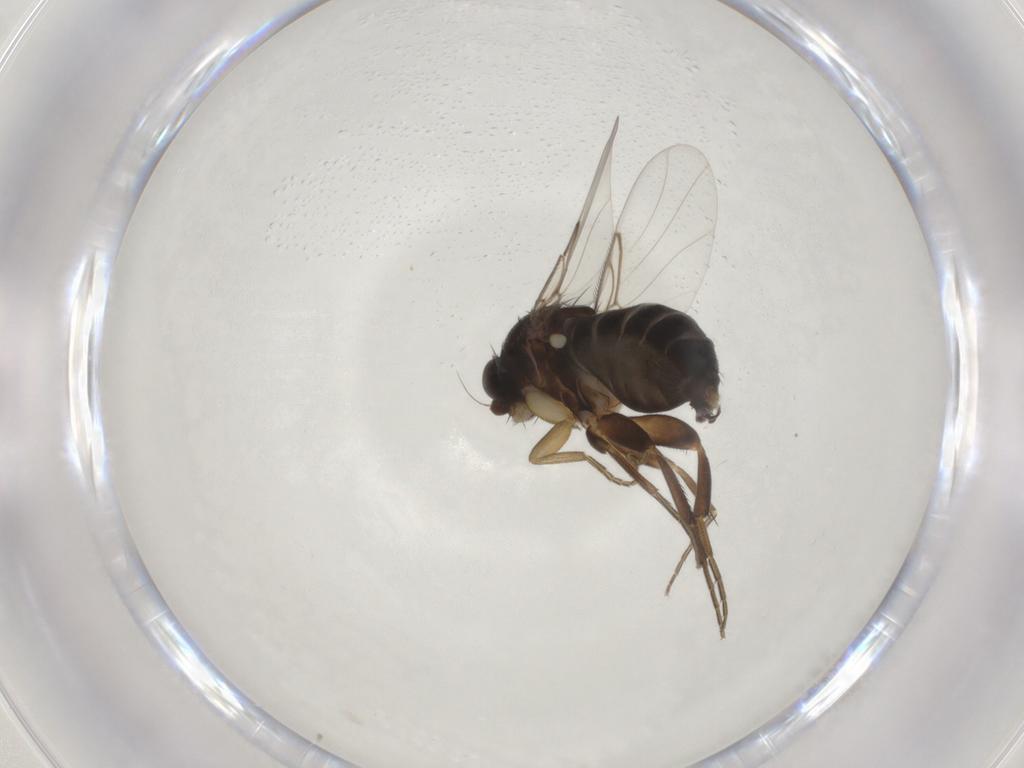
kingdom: Animalia
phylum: Arthropoda
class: Insecta
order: Diptera
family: Phoridae
